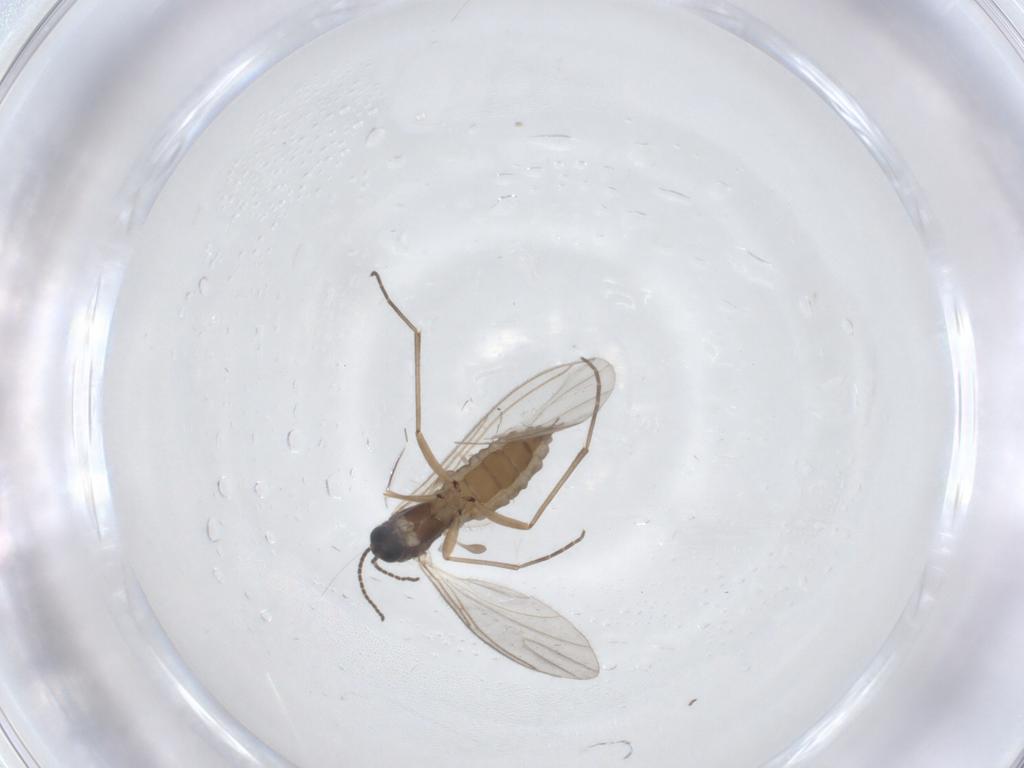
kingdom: Animalia
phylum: Arthropoda
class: Insecta
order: Diptera
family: Sciaridae
